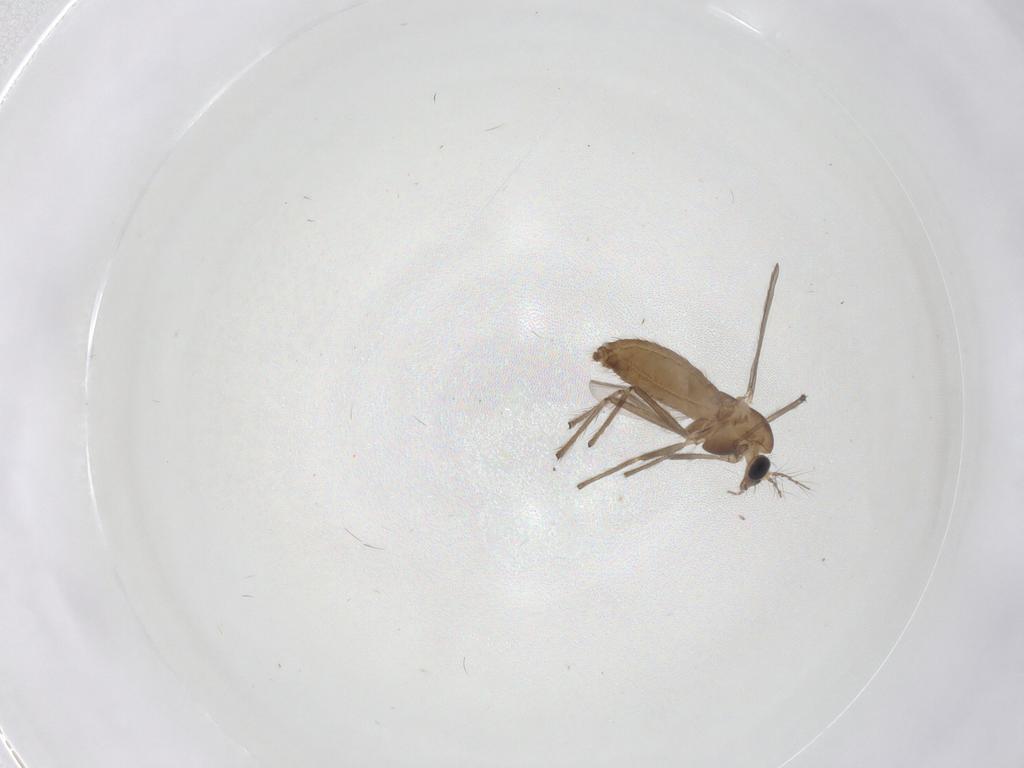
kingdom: Animalia
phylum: Arthropoda
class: Insecta
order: Diptera
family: Chironomidae
